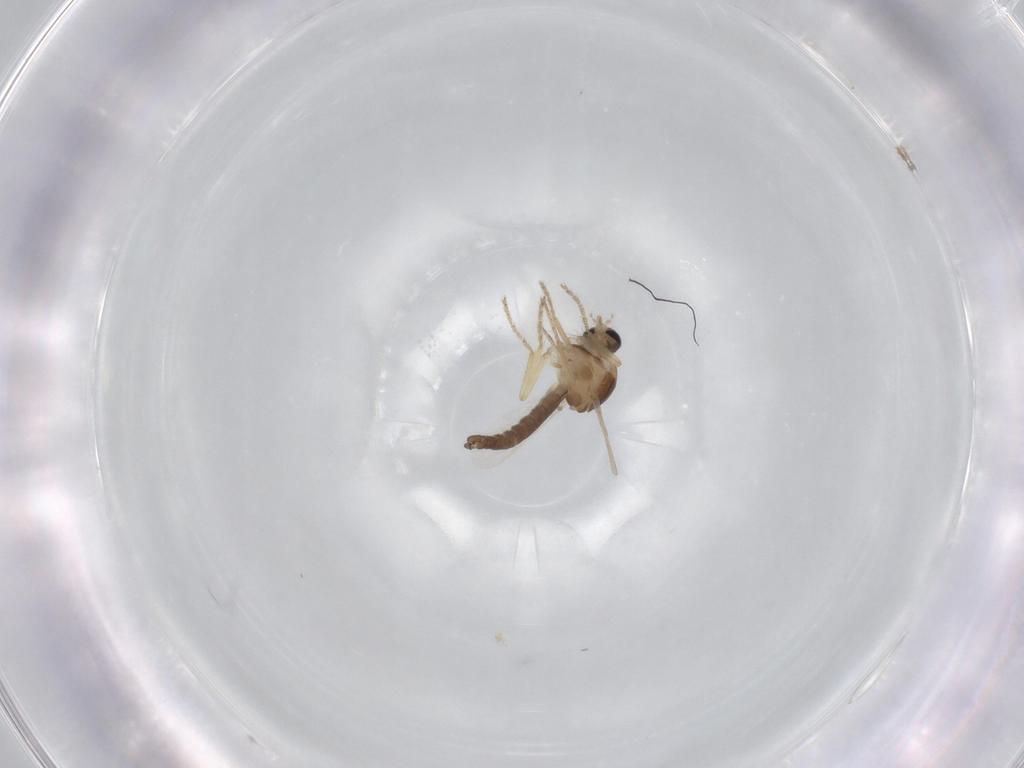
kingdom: Animalia
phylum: Arthropoda
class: Insecta
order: Diptera
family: Ceratopogonidae
